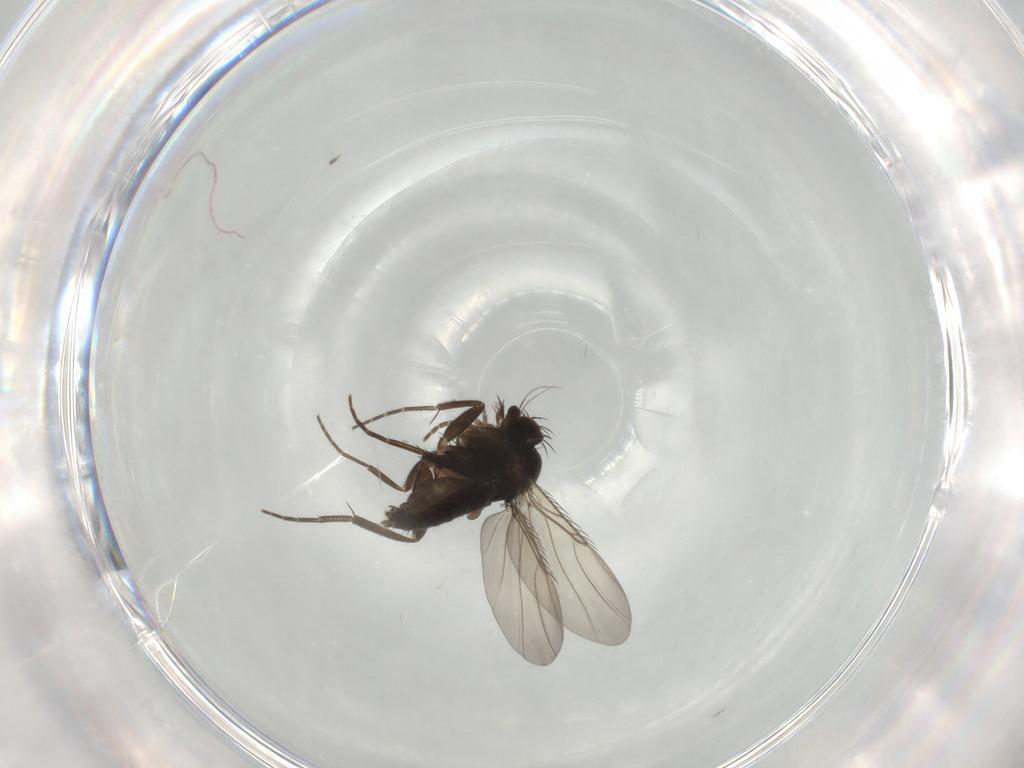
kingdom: Animalia
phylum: Arthropoda
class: Insecta
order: Diptera
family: Phoridae
